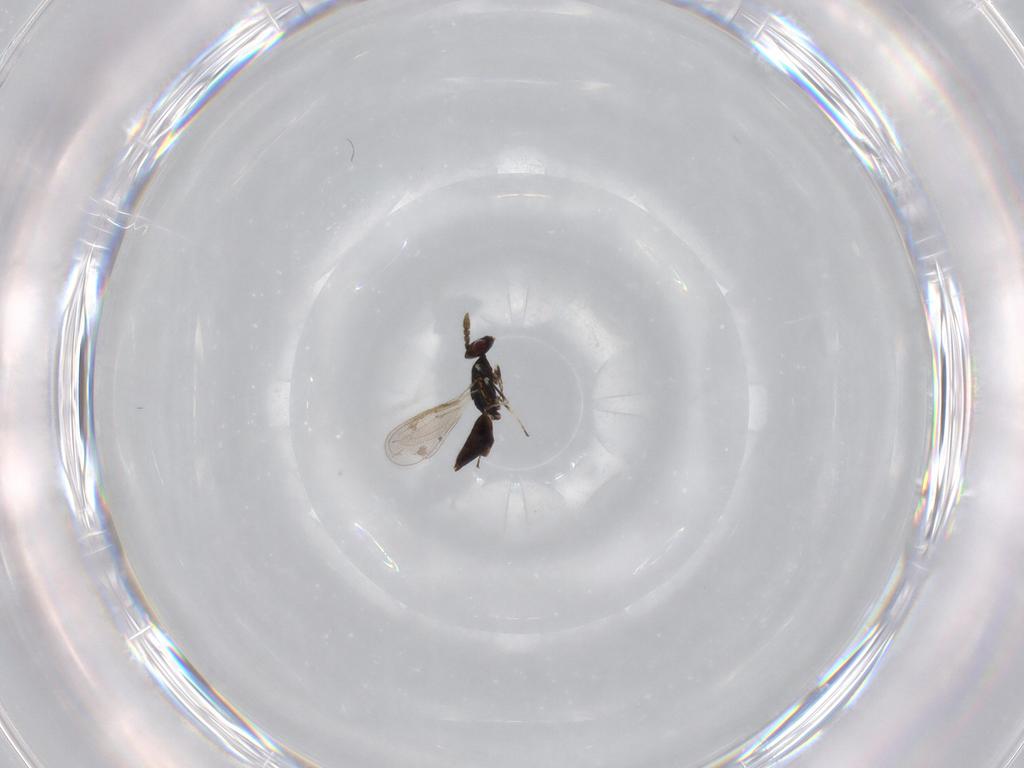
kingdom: Animalia
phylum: Arthropoda
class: Insecta
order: Hymenoptera
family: Eulophidae
